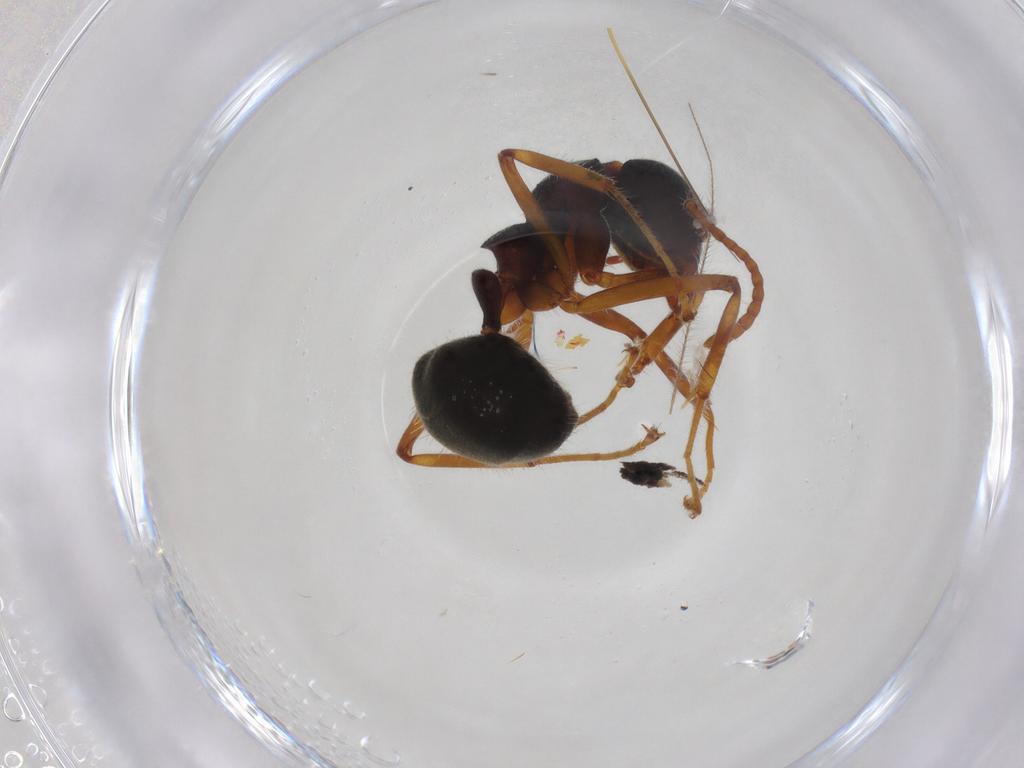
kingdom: Animalia
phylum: Arthropoda
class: Insecta
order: Hymenoptera
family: Formicidae
